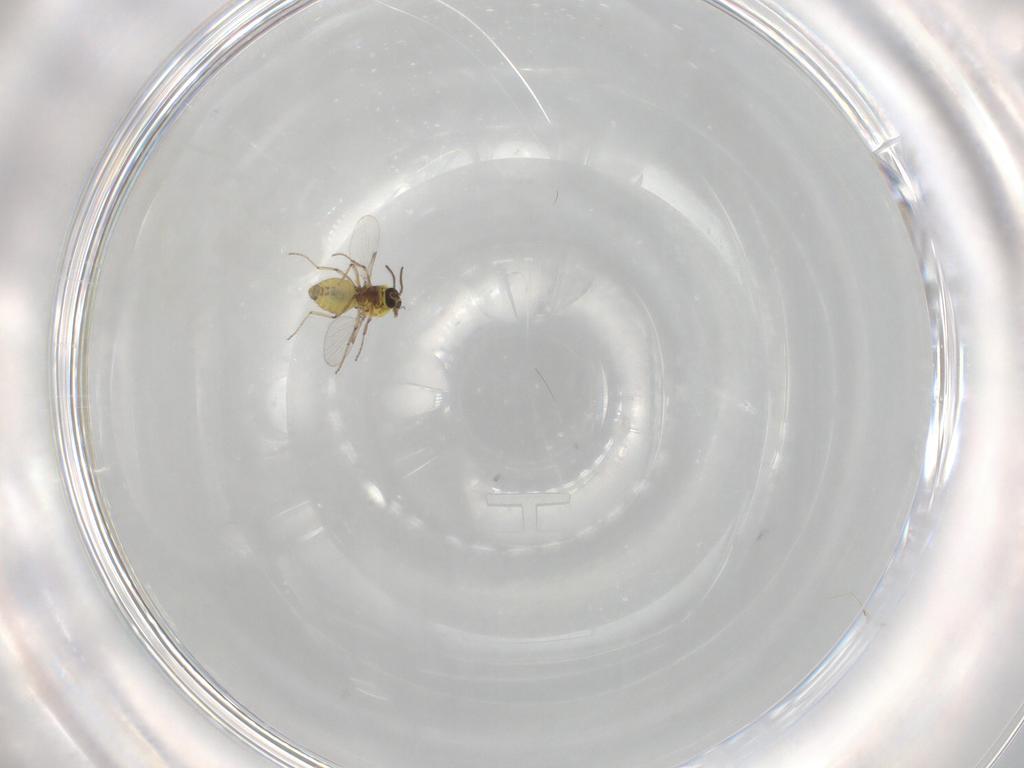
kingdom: Animalia
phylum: Arthropoda
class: Insecta
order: Diptera
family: Ceratopogonidae
